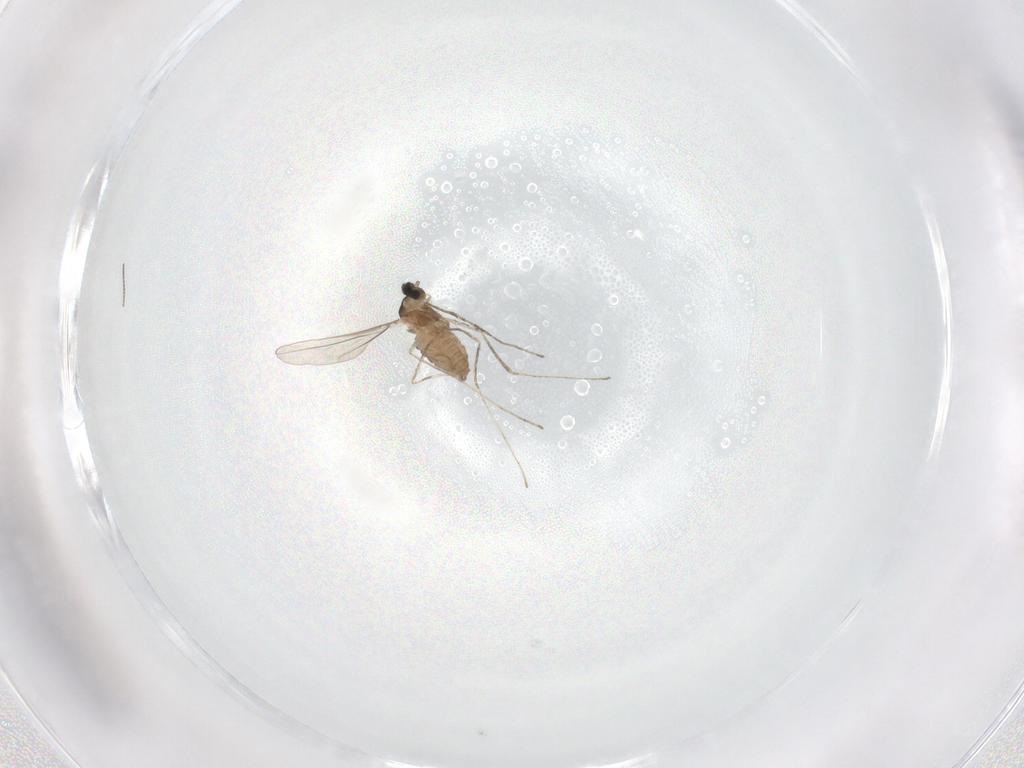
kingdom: Animalia
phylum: Arthropoda
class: Insecta
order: Diptera
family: Cecidomyiidae
